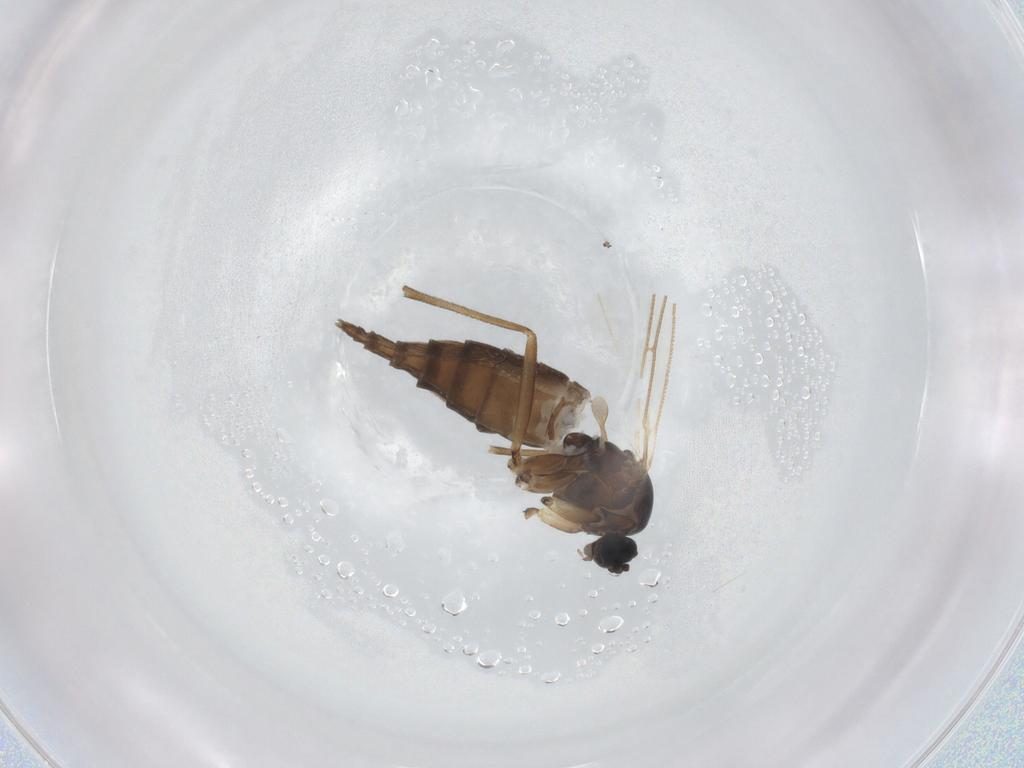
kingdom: Animalia
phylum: Arthropoda
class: Insecta
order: Diptera
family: Sciaridae
